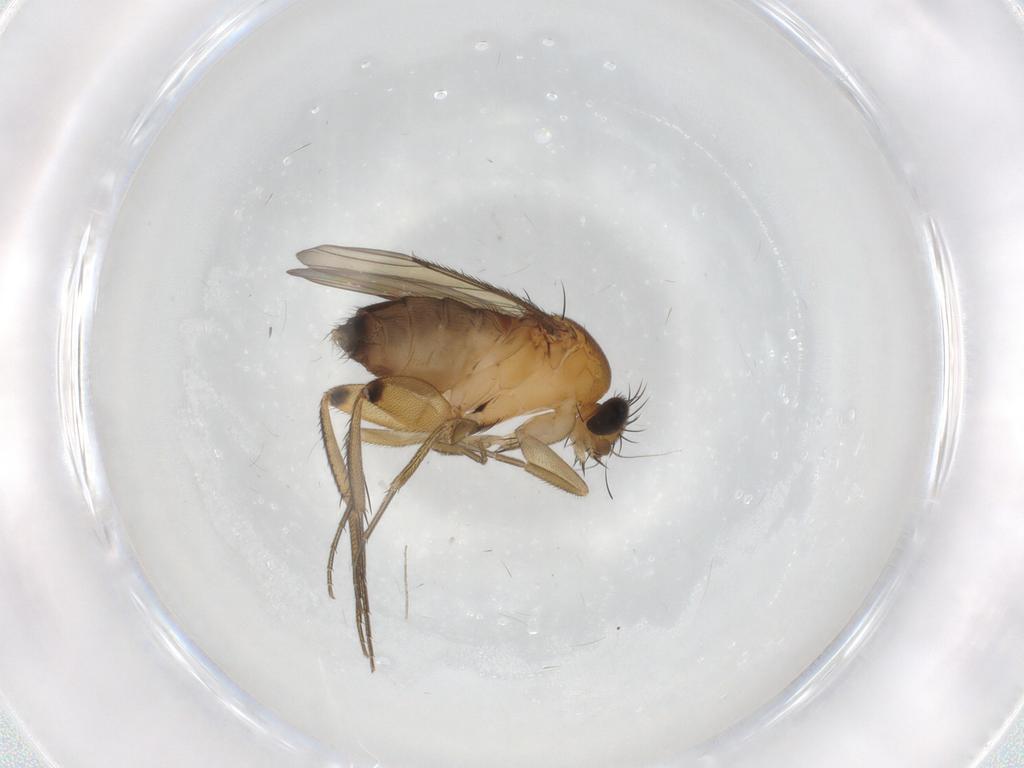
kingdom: Animalia
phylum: Arthropoda
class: Insecta
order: Diptera
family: Phoridae
